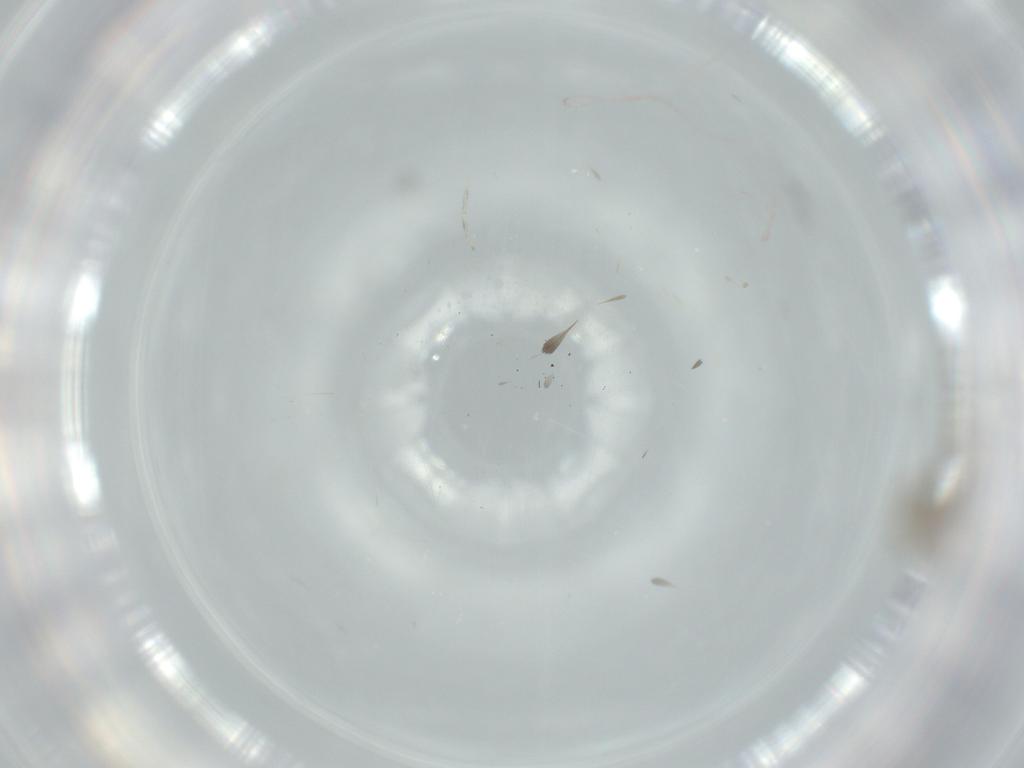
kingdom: Animalia
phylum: Arthropoda
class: Insecta
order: Diptera
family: Cecidomyiidae
